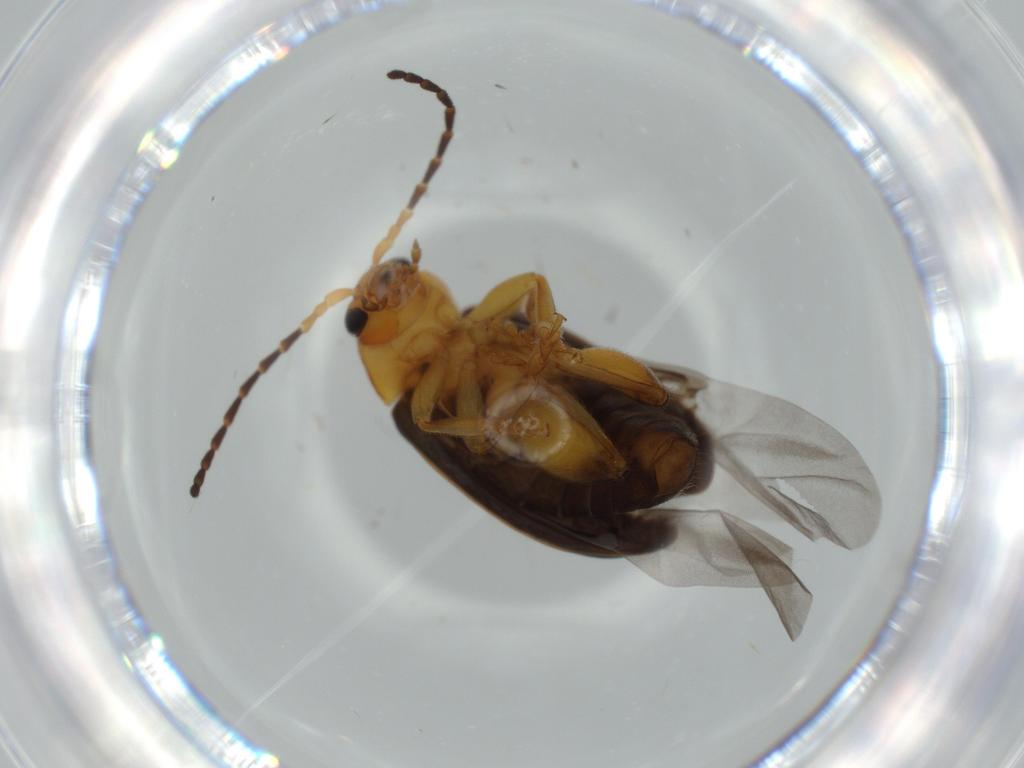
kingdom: Animalia
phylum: Arthropoda
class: Insecta
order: Coleoptera
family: Chrysomelidae
